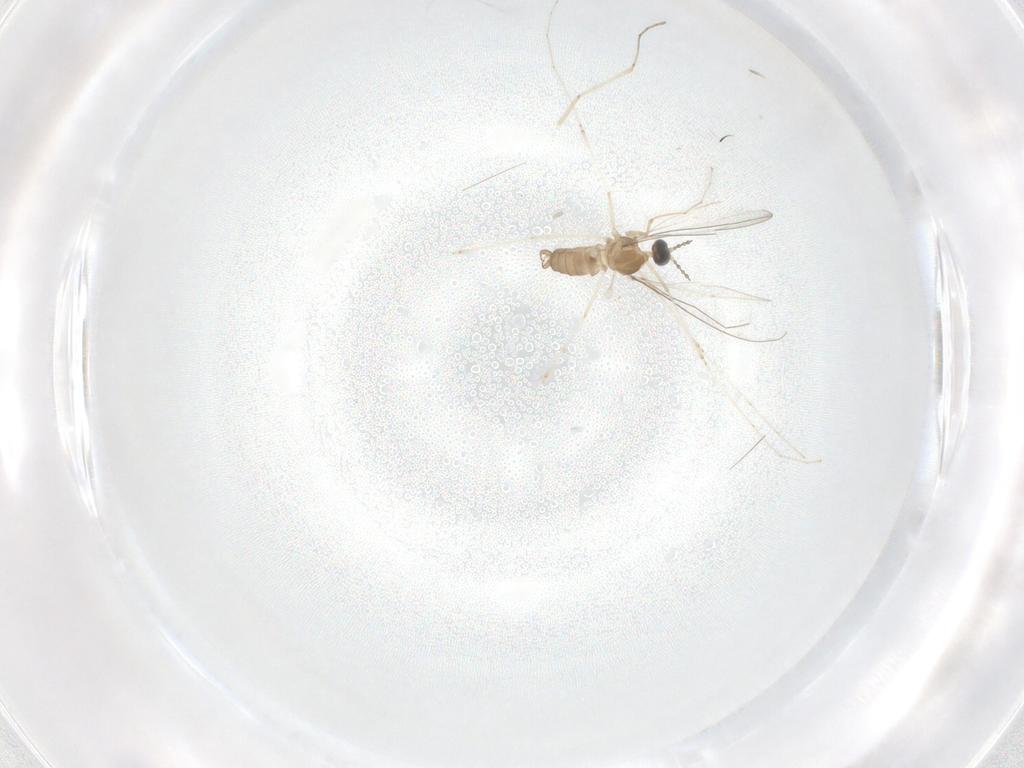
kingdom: Animalia
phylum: Arthropoda
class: Insecta
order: Diptera
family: Cecidomyiidae
